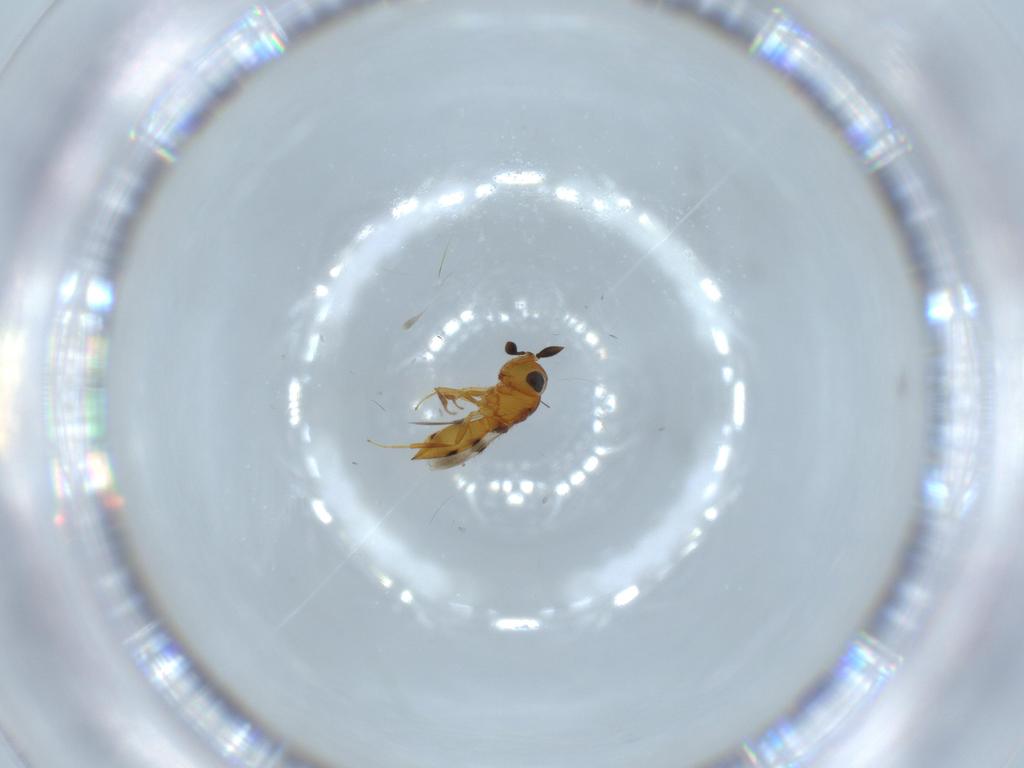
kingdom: Animalia
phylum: Arthropoda
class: Insecta
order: Hymenoptera
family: Scelionidae
